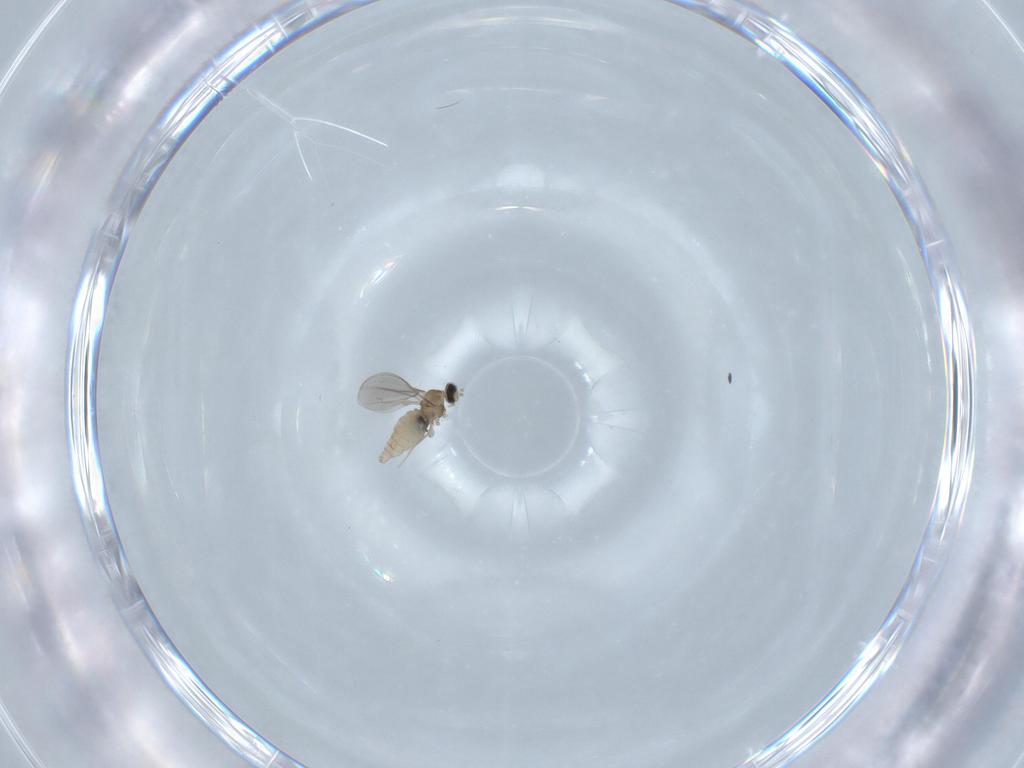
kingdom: Animalia
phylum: Arthropoda
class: Insecta
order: Diptera
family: Cecidomyiidae
